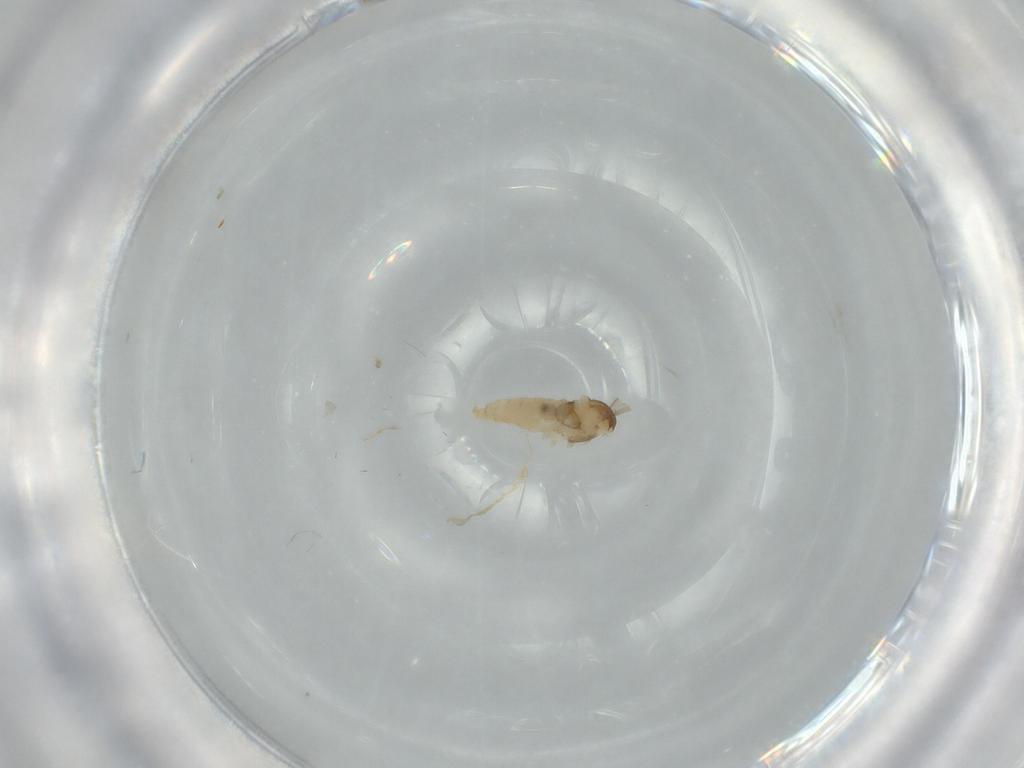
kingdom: Animalia
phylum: Arthropoda
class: Insecta
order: Diptera
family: Cecidomyiidae
